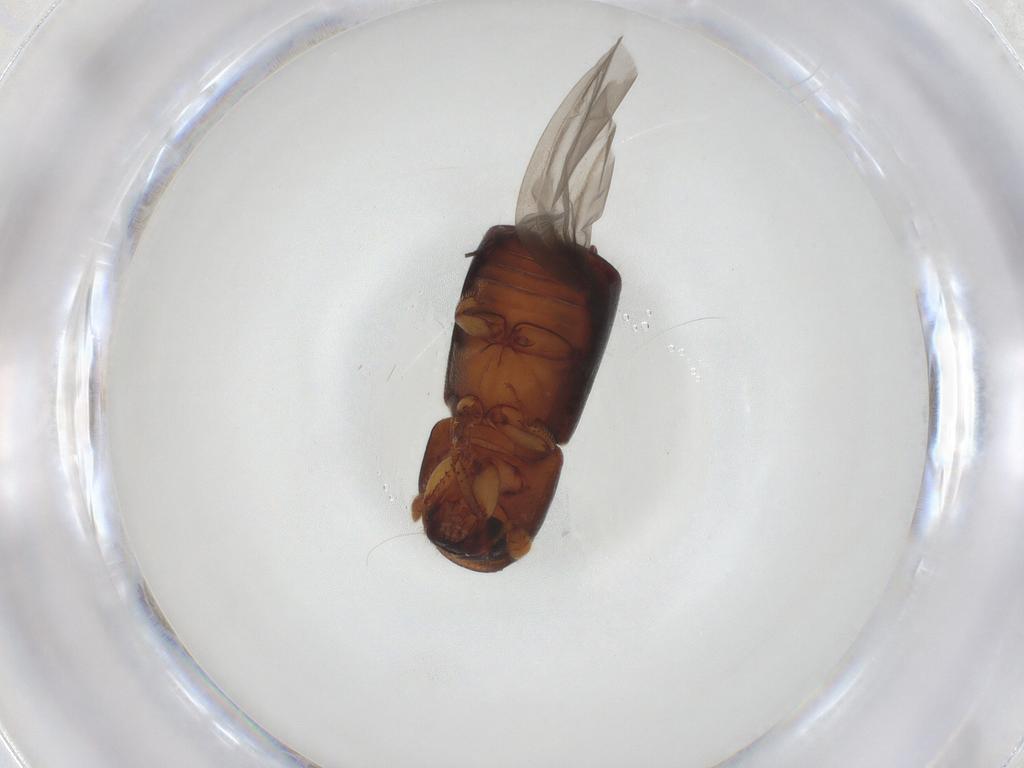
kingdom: Animalia
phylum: Arthropoda
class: Insecta
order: Coleoptera
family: Curculionidae
